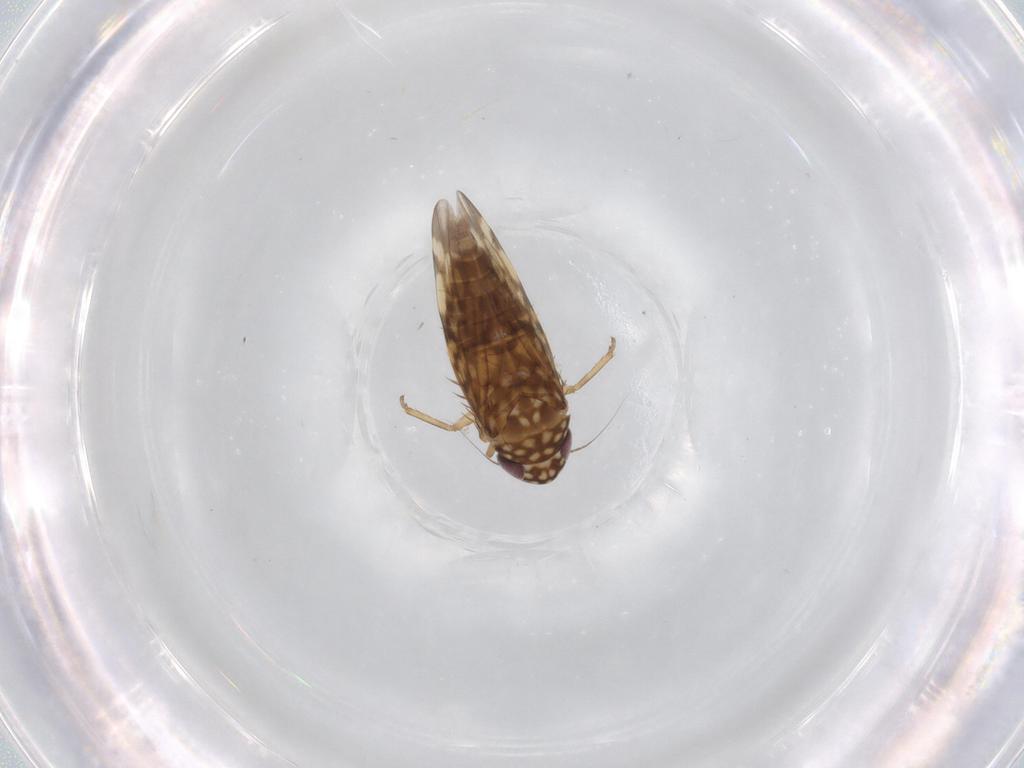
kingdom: Animalia
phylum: Arthropoda
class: Insecta
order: Hemiptera
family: Cicadellidae
